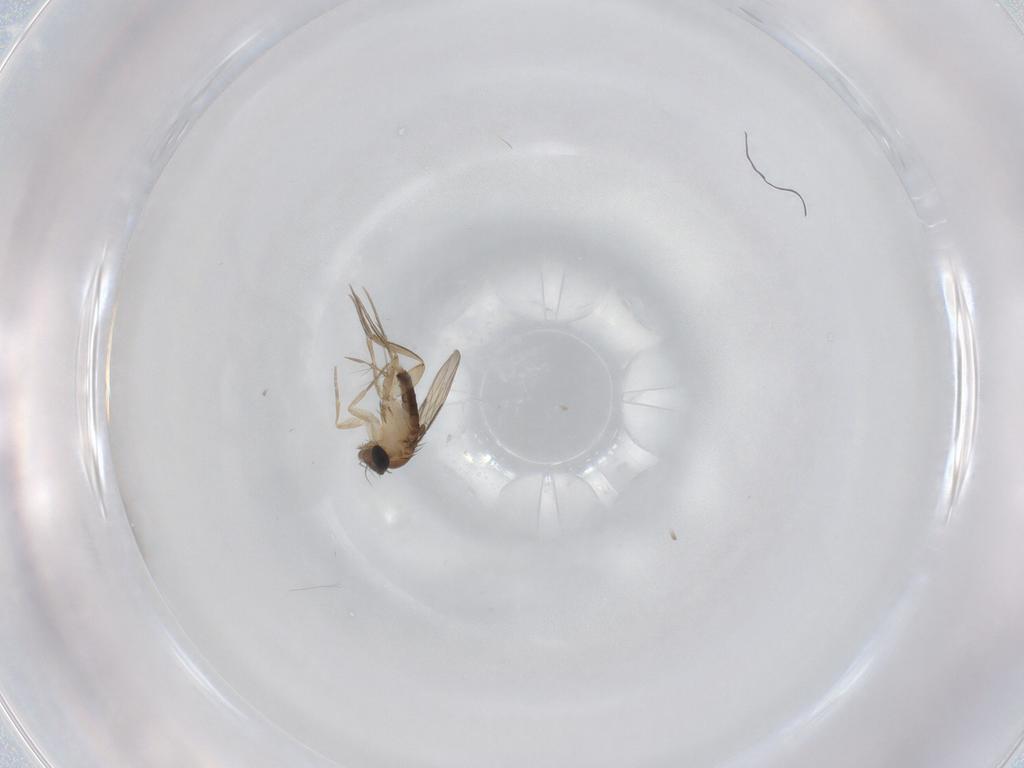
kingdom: Animalia
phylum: Arthropoda
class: Insecta
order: Diptera
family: Phoridae
